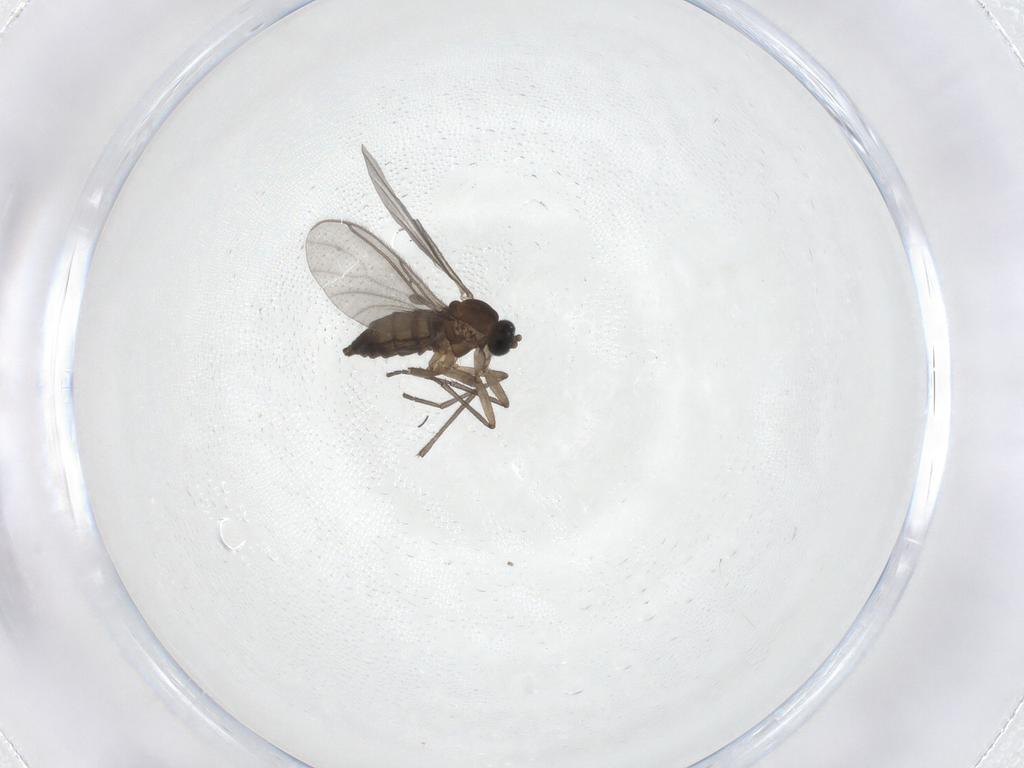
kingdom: Animalia
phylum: Arthropoda
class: Insecta
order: Diptera
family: Sciaridae
